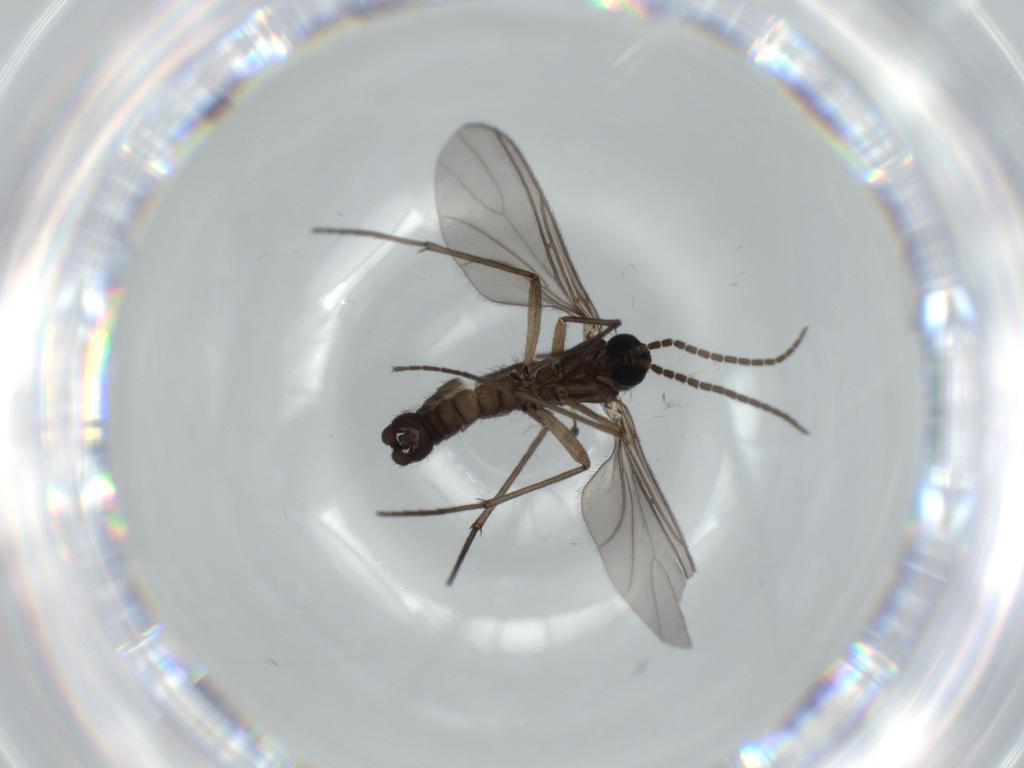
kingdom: Animalia
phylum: Arthropoda
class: Insecta
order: Diptera
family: Sciaridae
